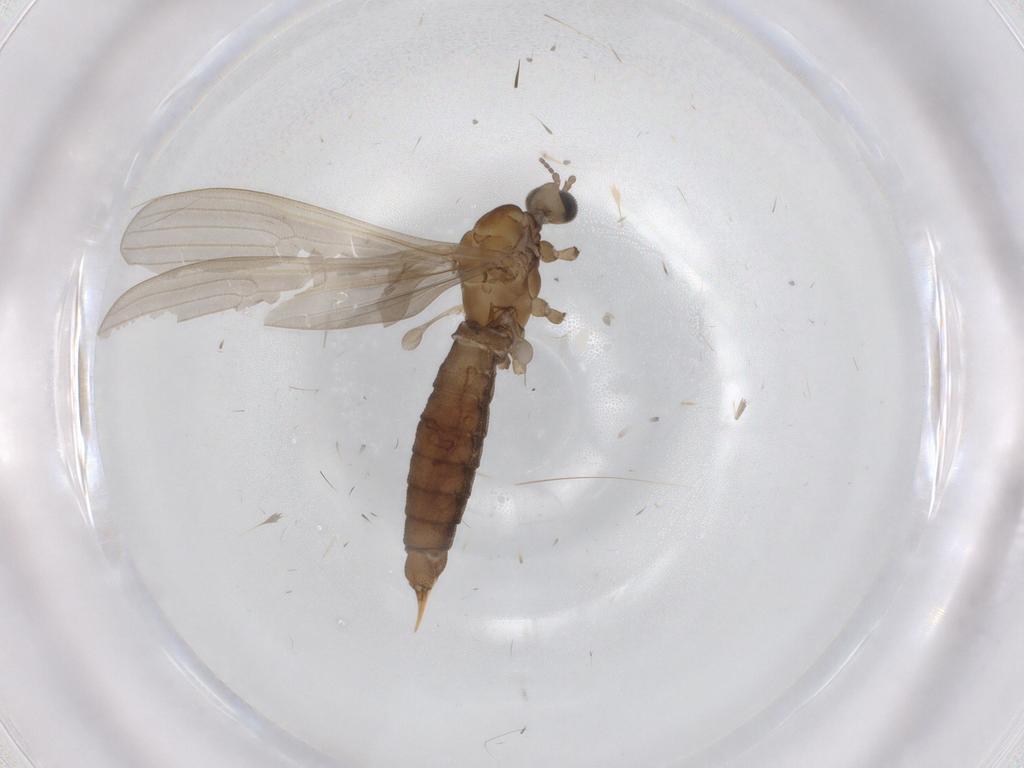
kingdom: Animalia
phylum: Arthropoda
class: Insecta
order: Diptera
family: Limoniidae
